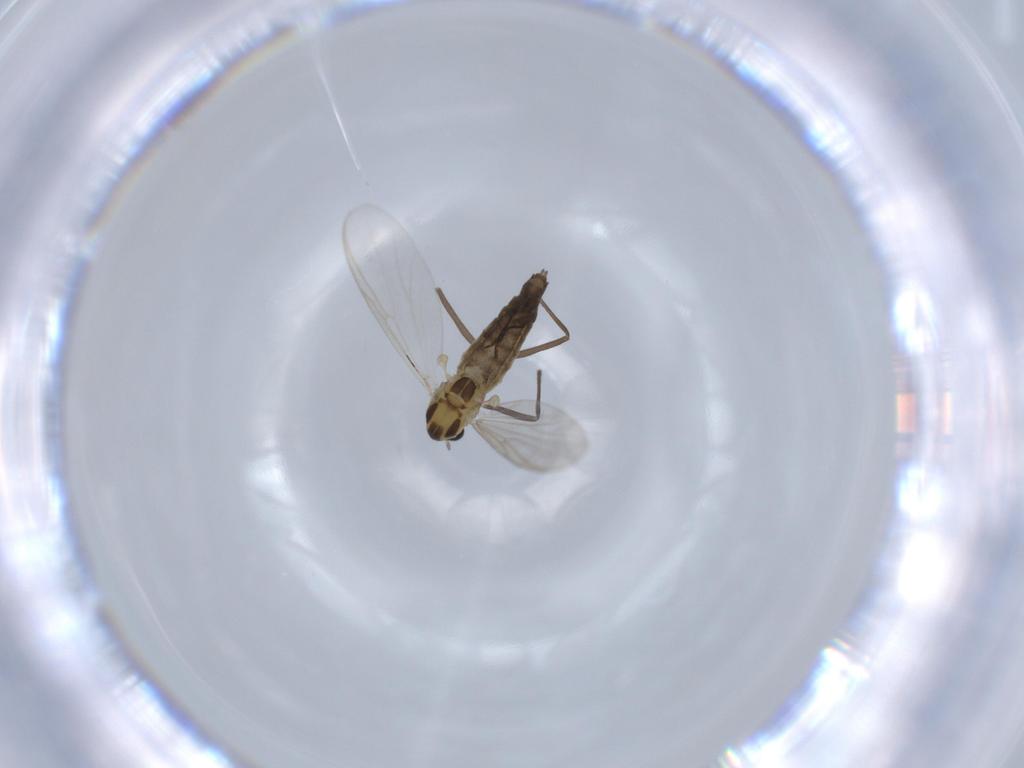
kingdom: Animalia
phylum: Arthropoda
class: Insecta
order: Diptera
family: Chironomidae
